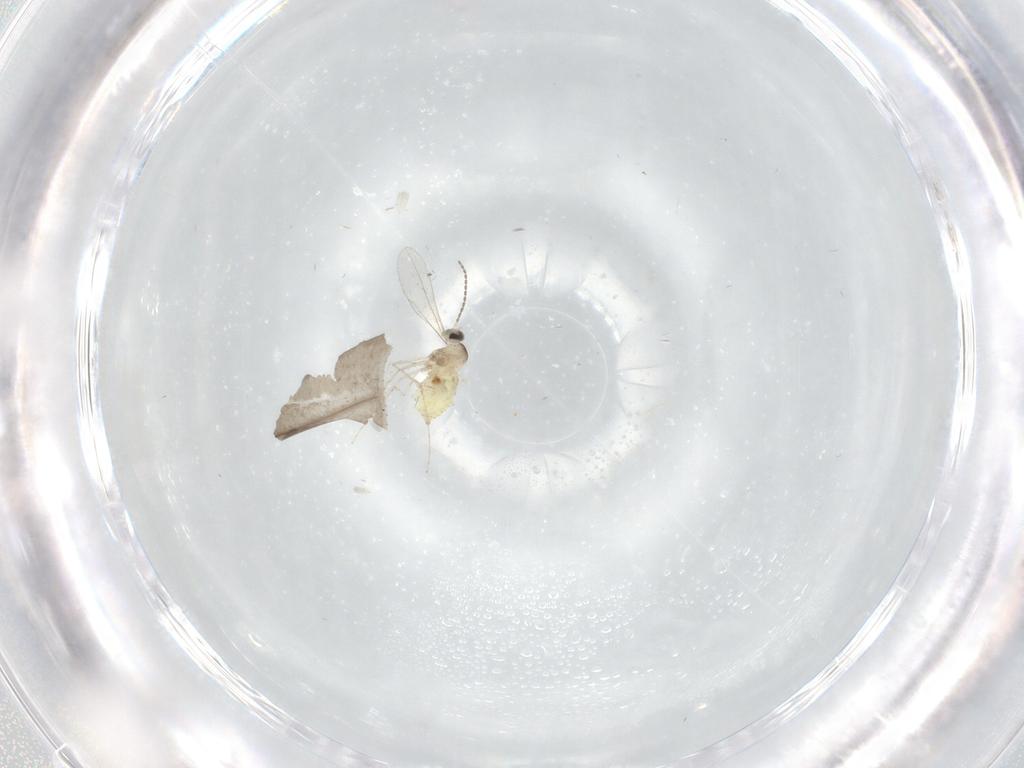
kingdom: Animalia
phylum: Arthropoda
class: Insecta
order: Diptera
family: Cecidomyiidae
